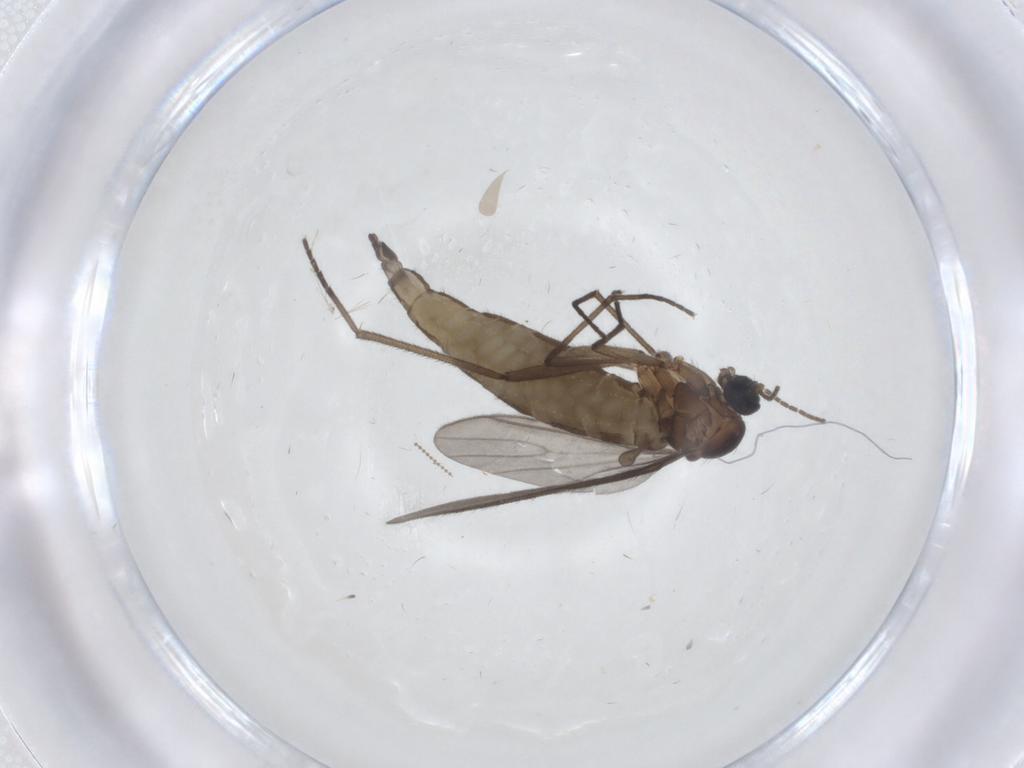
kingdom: Animalia
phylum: Arthropoda
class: Insecta
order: Diptera
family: Sciaridae
